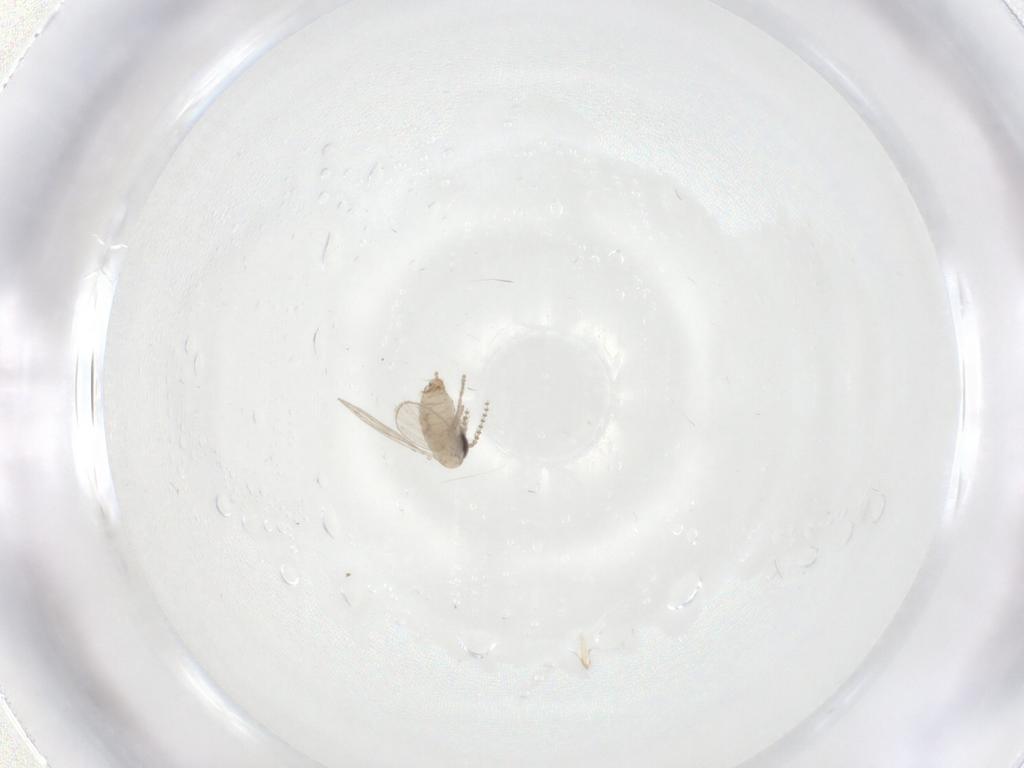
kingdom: Animalia
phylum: Arthropoda
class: Insecta
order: Diptera
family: Psychodidae
